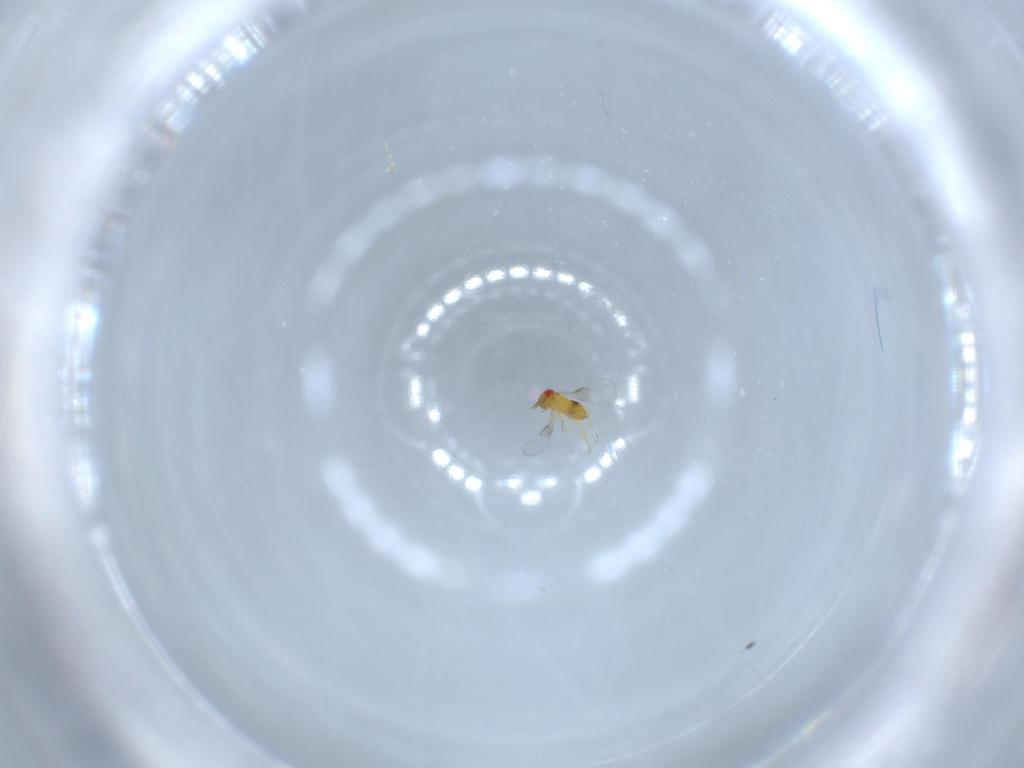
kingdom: Animalia
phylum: Arthropoda
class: Insecta
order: Hymenoptera
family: Trichogrammatidae
